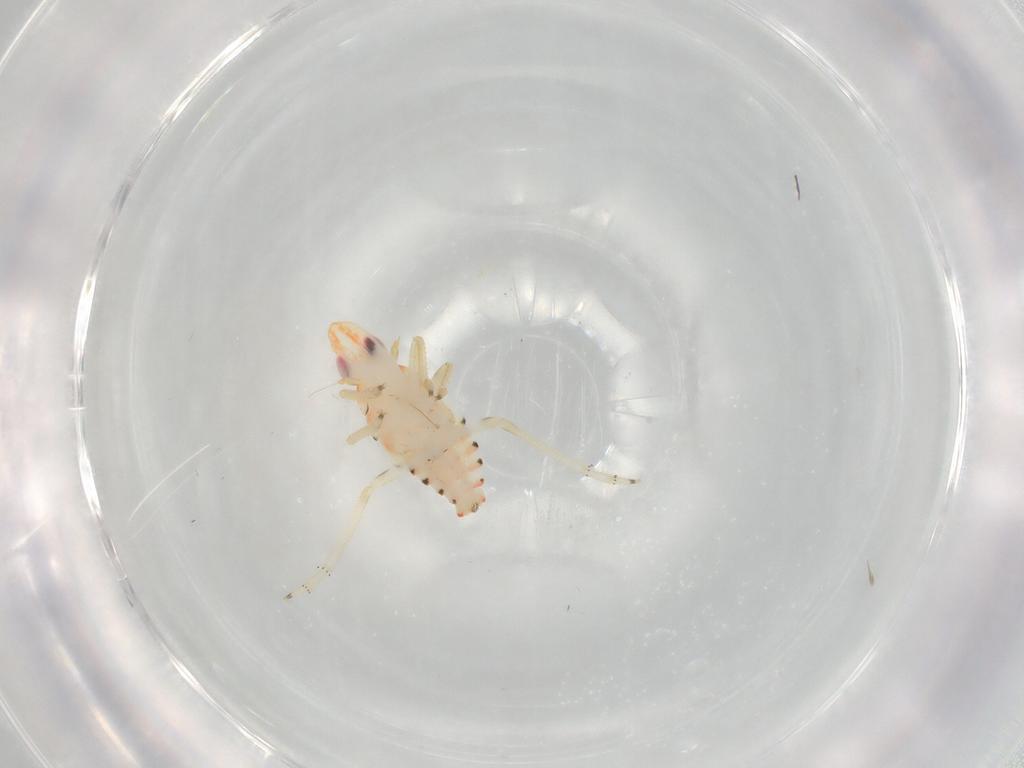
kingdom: Animalia
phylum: Arthropoda
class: Insecta
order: Hemiptera
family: Tropiduchidae
